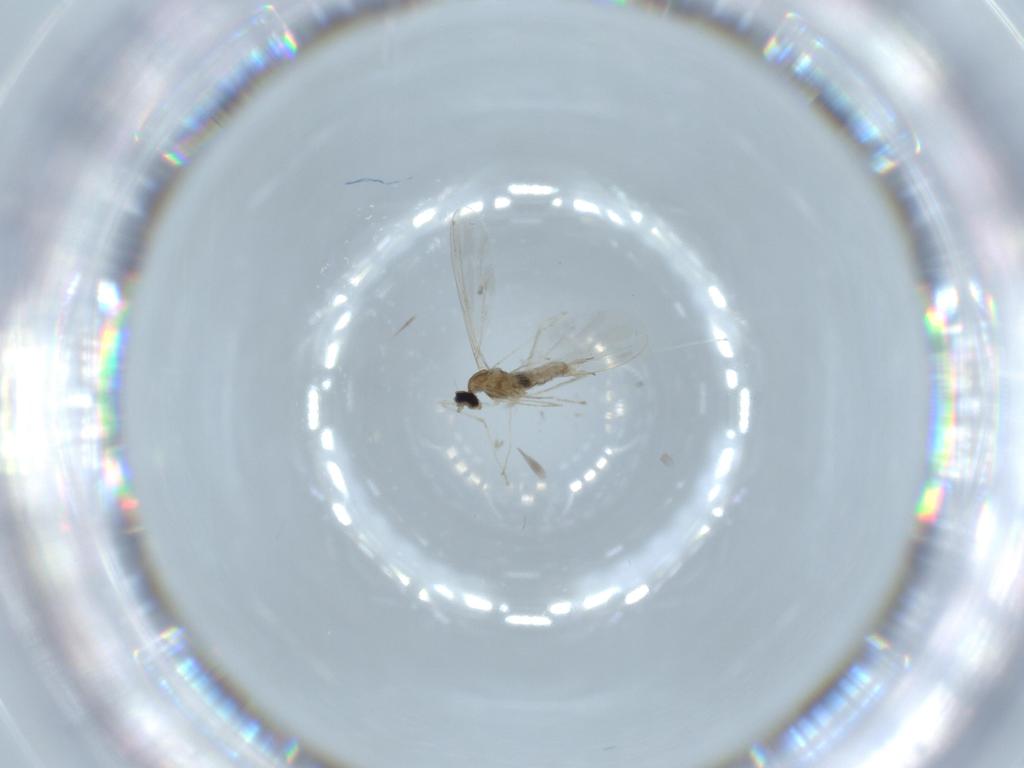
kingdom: Animalia
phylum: Arthropoda
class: Insecta
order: Diptera
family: Cecidomyiidae
